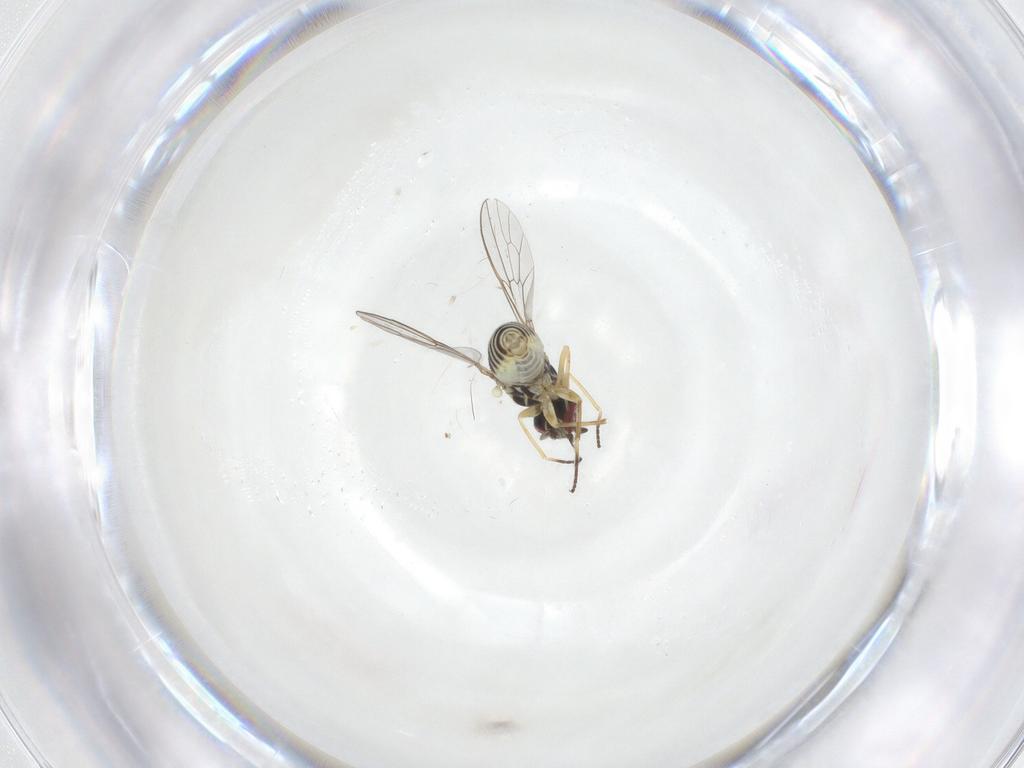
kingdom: Animalia
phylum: Arthropoda
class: Insecta
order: Diptera
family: Bombyliidae
